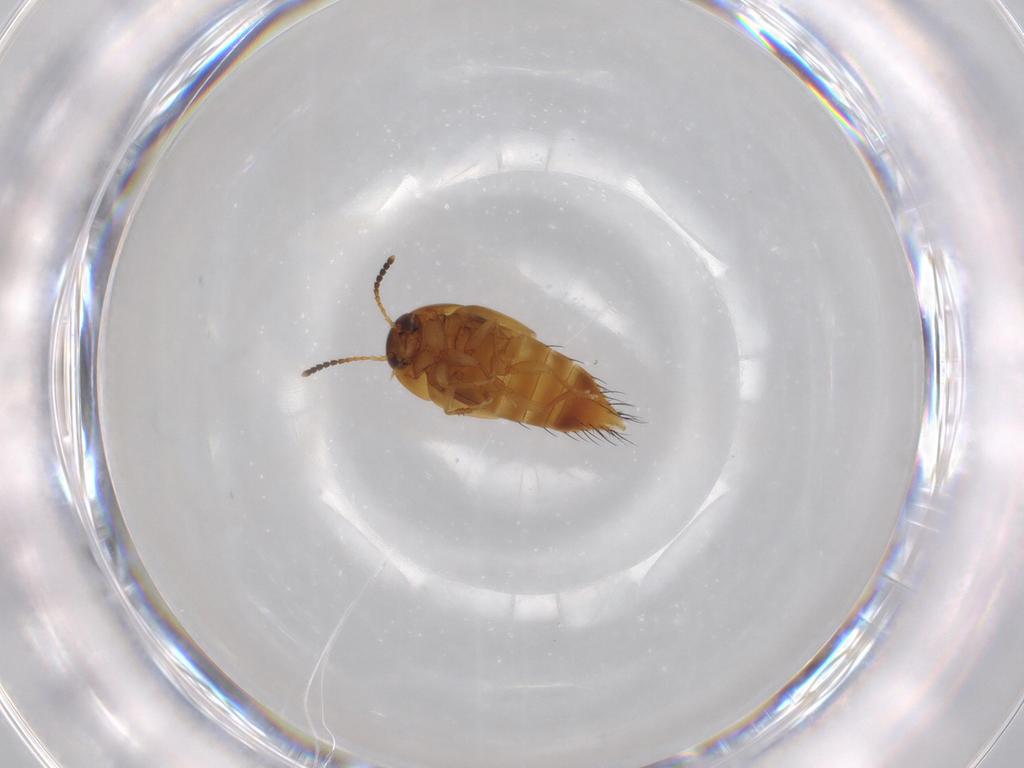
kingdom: Animalia
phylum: Arthropoda
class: Insecta
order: Coleoptera
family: Staphylinidae
